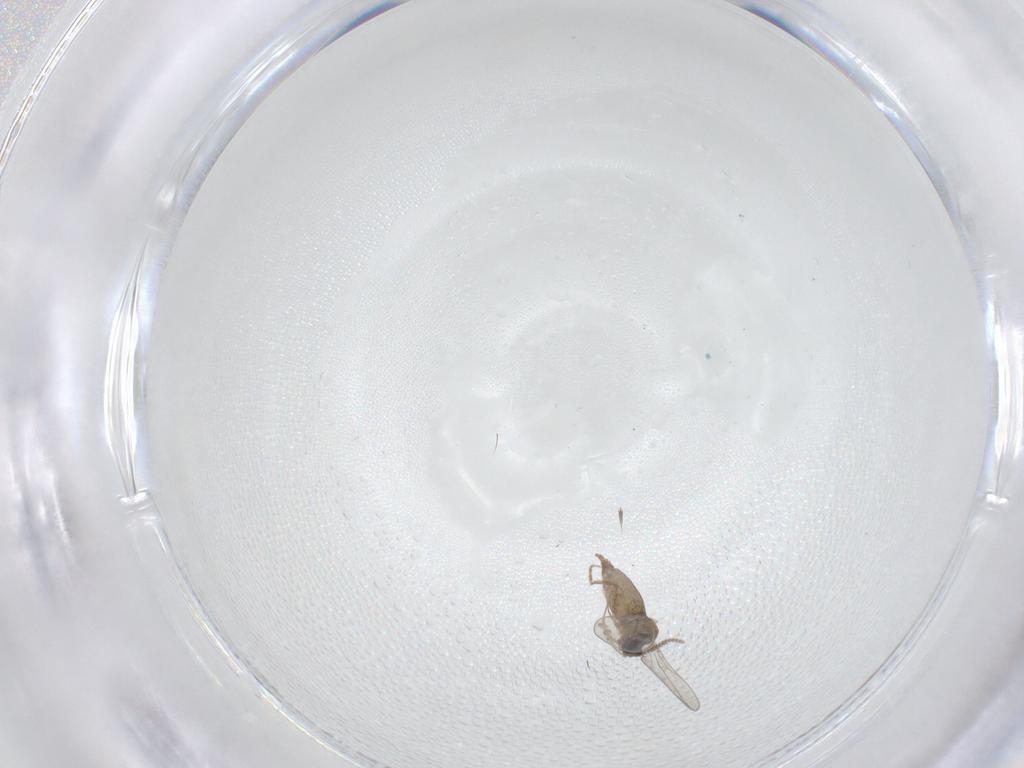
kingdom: Animalia
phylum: Arthropoda
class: Insecta
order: Diptera
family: Cecidomyiidae
